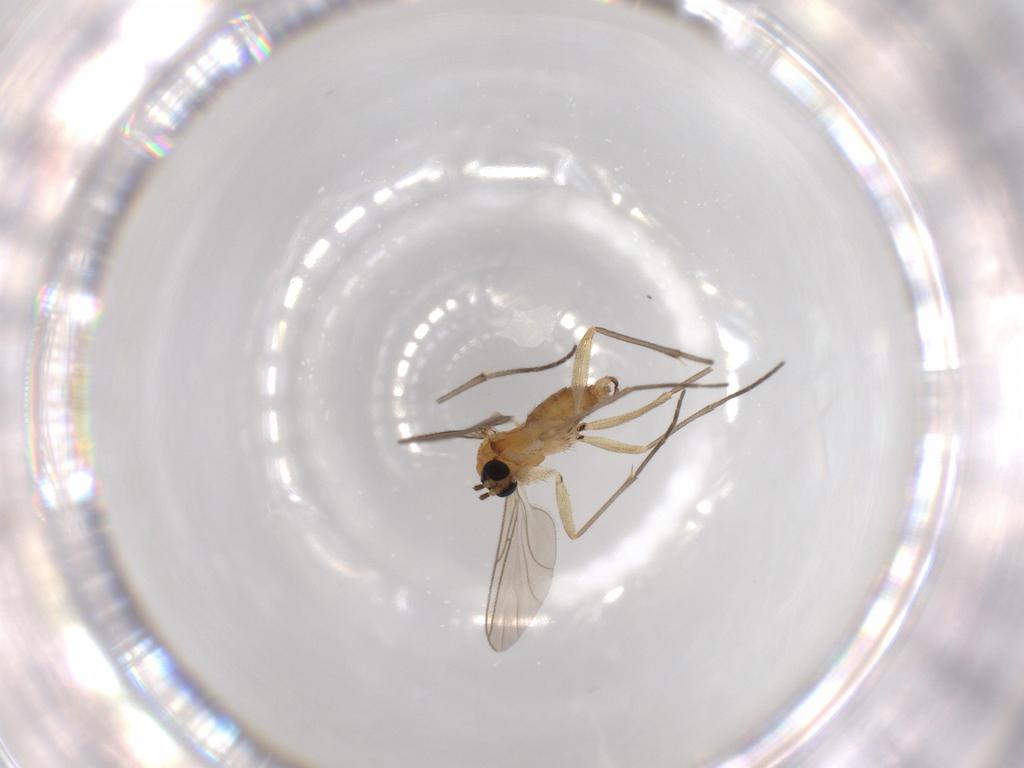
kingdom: Animalia
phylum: Arthropoda
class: Insecta
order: Diptera
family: Sciaridae
